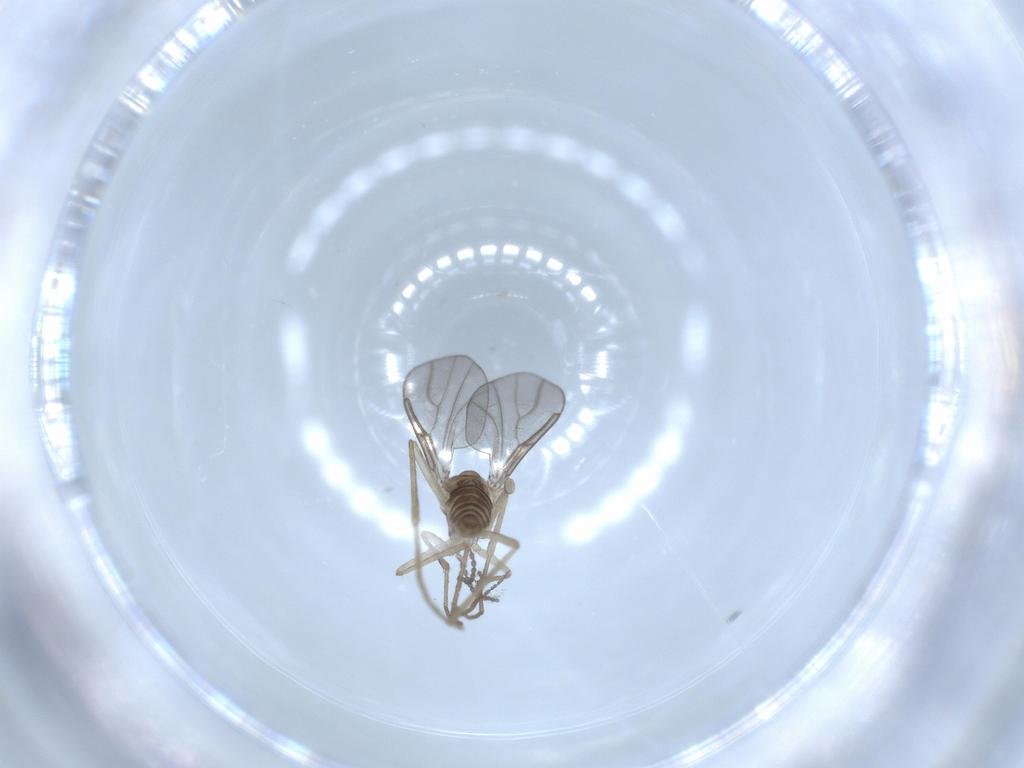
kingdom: Animalia
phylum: Arthropoda
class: Insecta
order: Diptera
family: Cecidomyiidae
